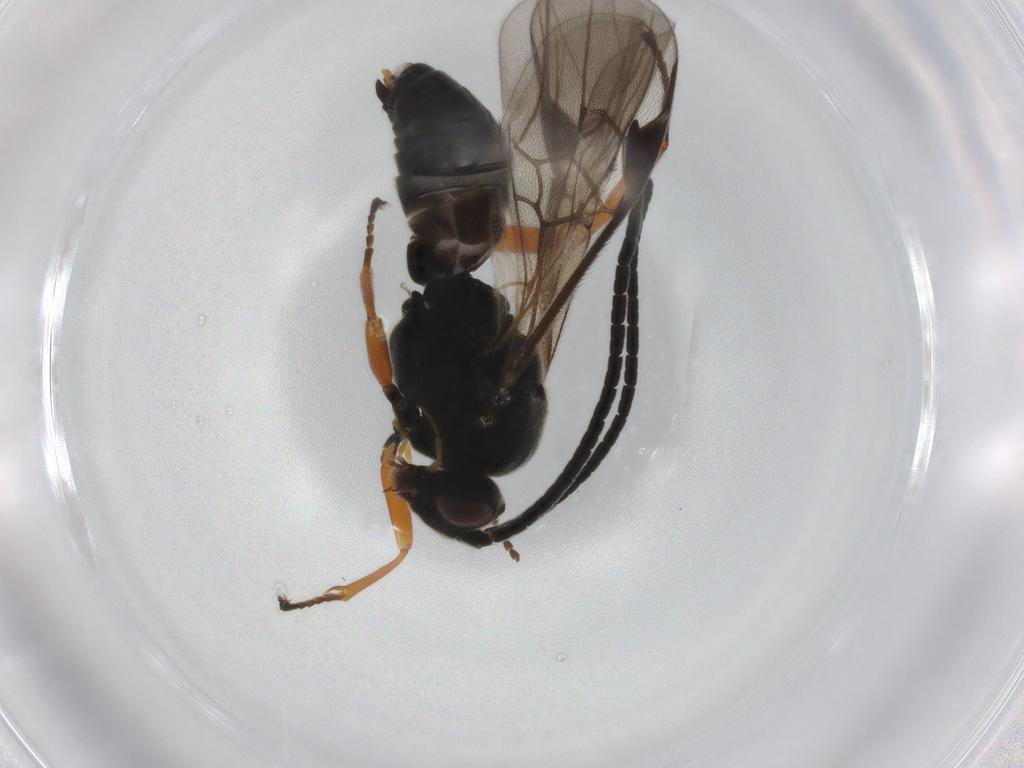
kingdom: Animalia
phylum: Arthropoda
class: Insecta
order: Hymenoptera
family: Braconidae
